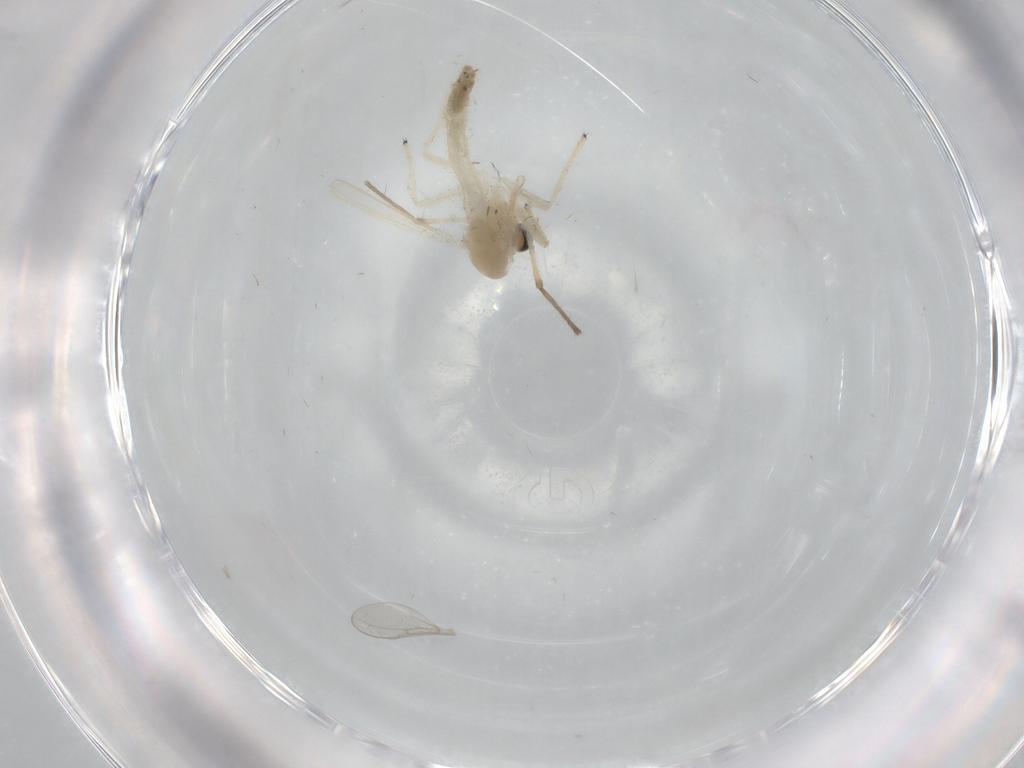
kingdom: Animalia
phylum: Arthropoda
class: Insecta
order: Diptera
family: Chironomidae
